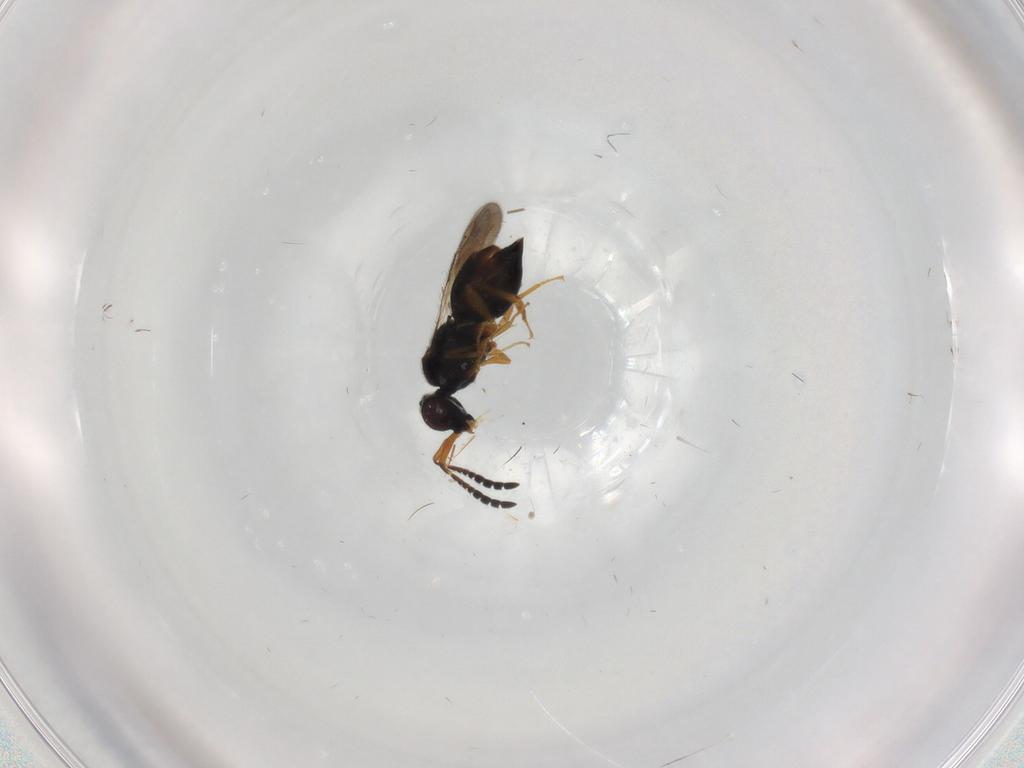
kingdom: Animalia
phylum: Arthropoda
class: Insecta
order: Hymenoptera
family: Ceraphronidae
